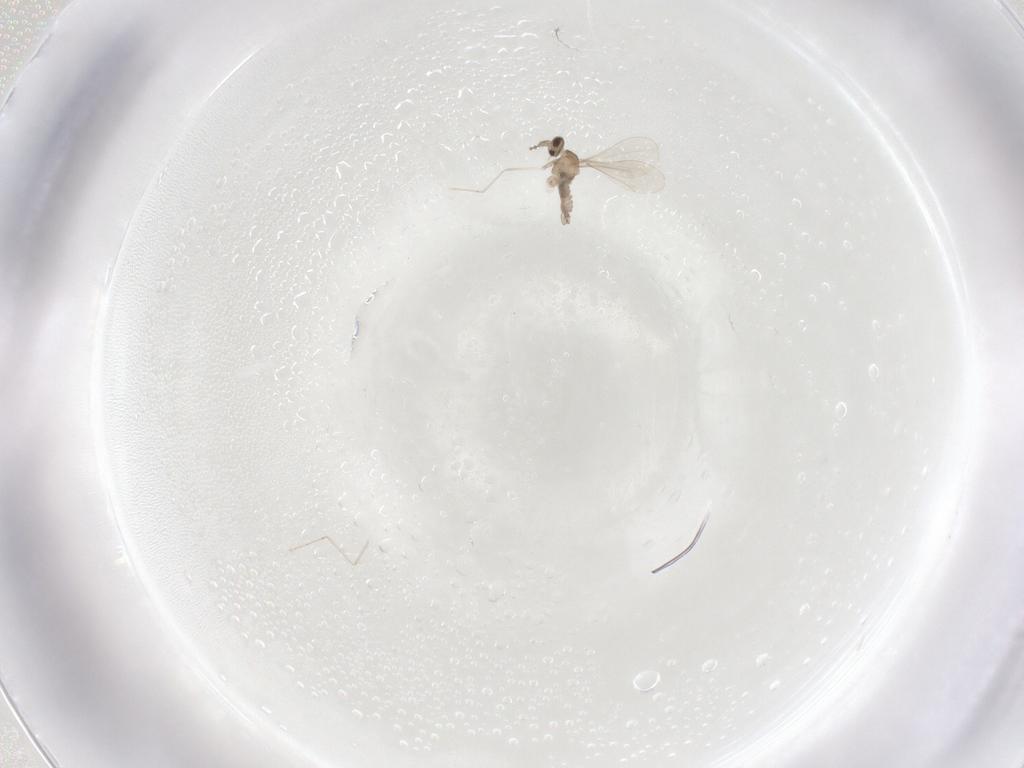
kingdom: Animalia
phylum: Arthropoda
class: Insecta
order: Diptera
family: Cecidomyiidae
